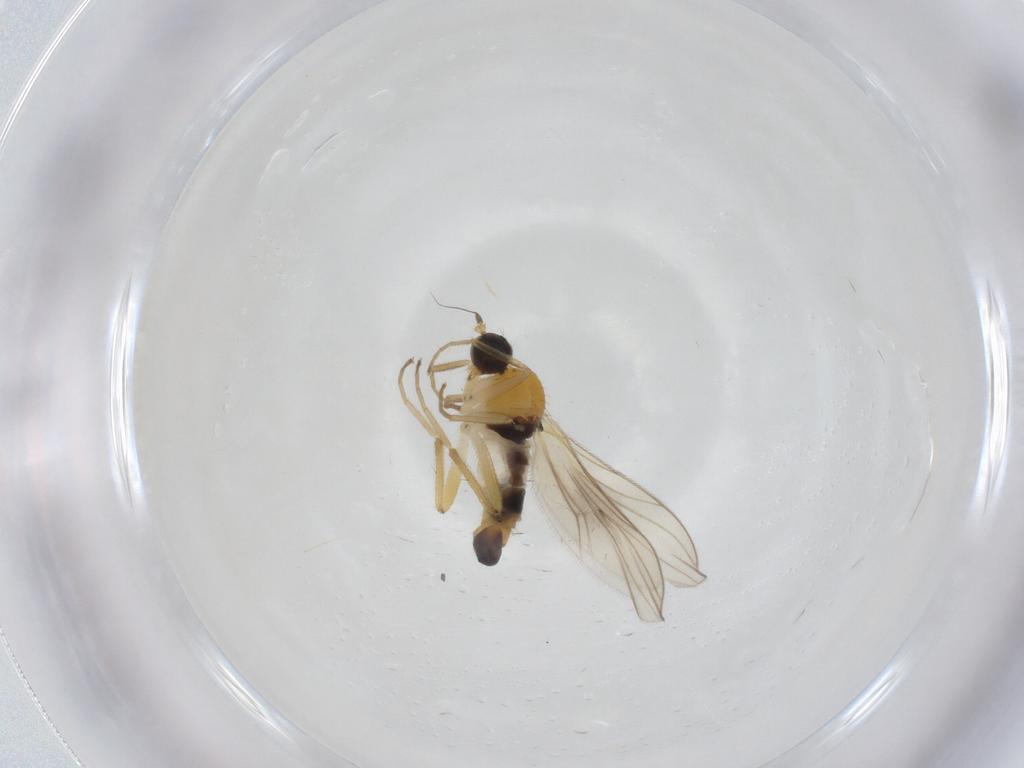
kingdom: Animalia
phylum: Arthropoda
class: Insecta
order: Diptera
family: Hybotidae
